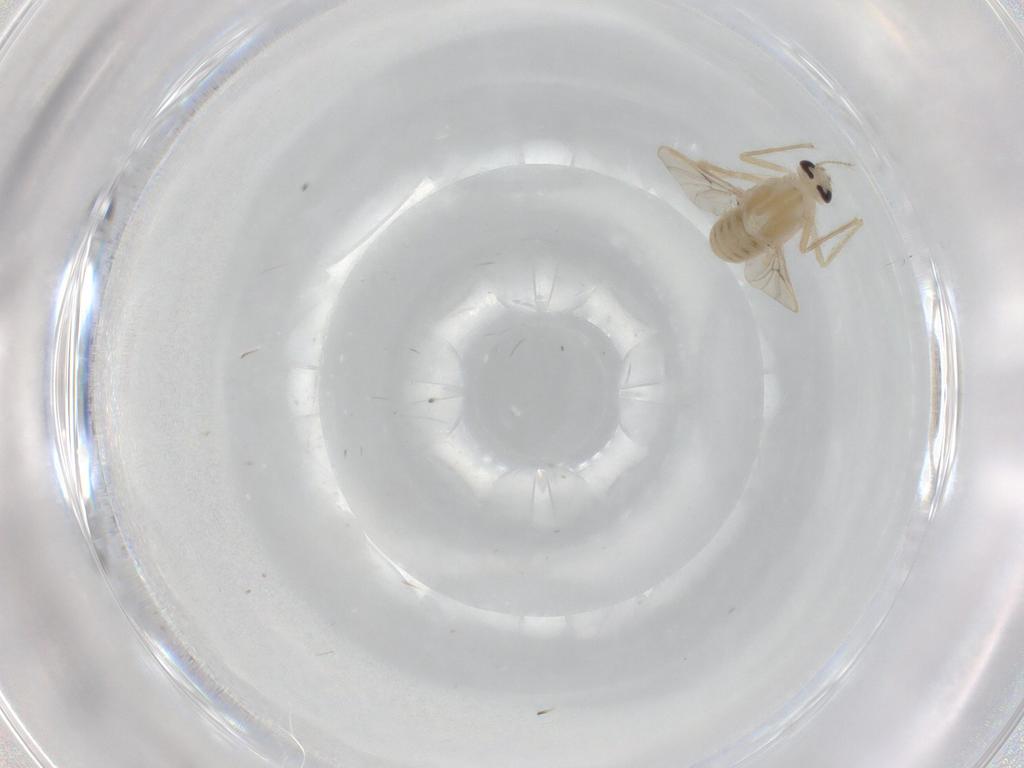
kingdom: Animalia
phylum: Arthropoda
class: Insecta
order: Diptera
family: Chironomidae
